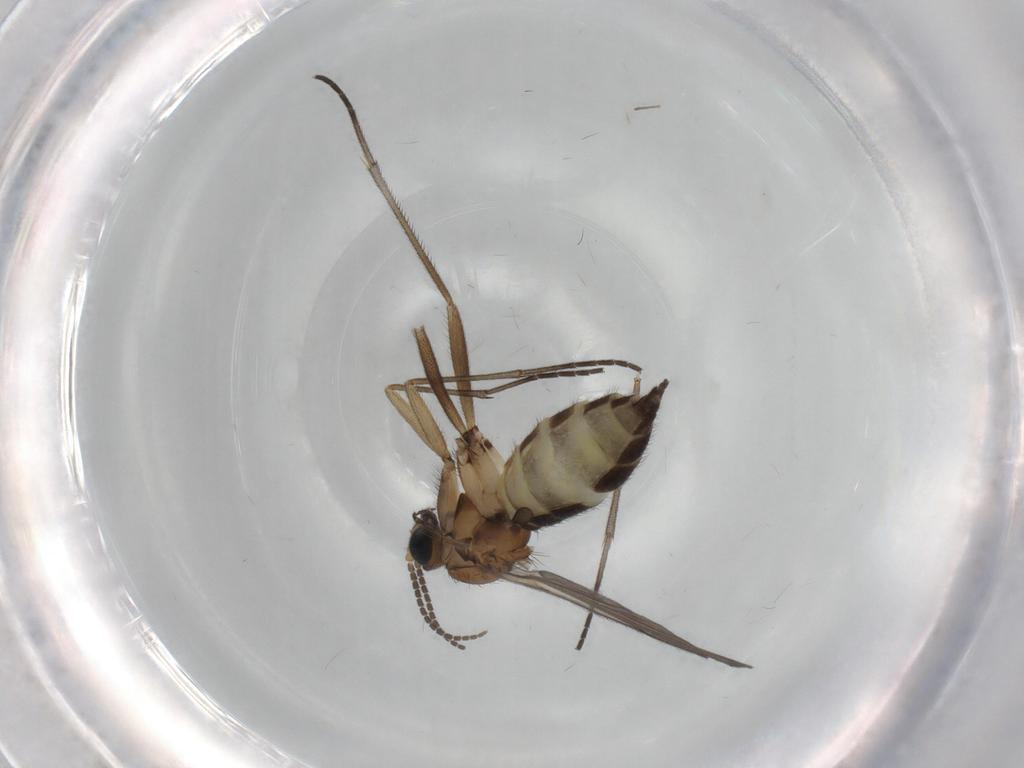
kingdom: Animalia
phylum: Arthropoda
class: Insecta
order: Diptera
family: Sciaridae
